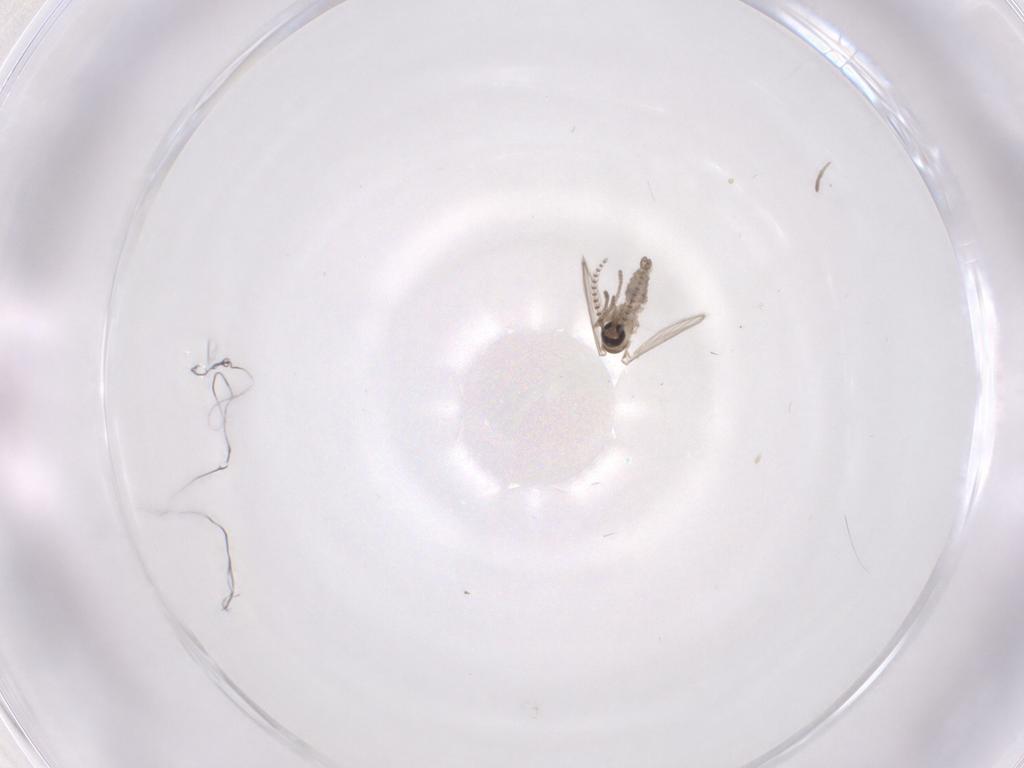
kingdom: Animalia
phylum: Arthropoda
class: Insecta
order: Diptera
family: Psychodidae
